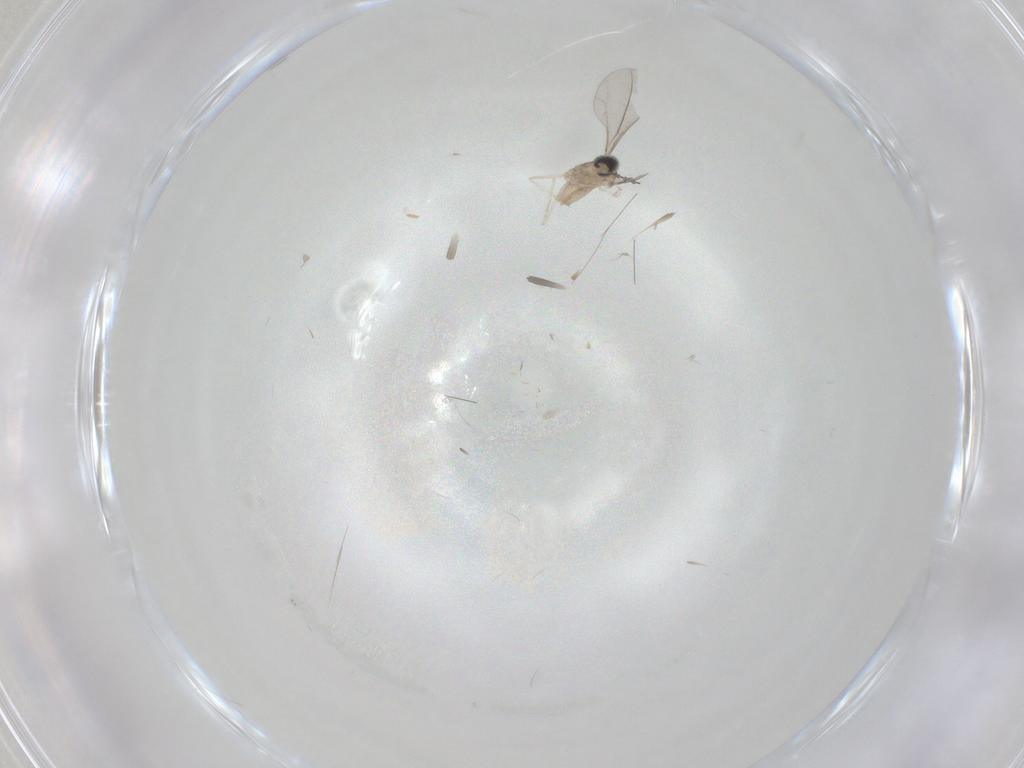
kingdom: Animalia
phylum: Arthropoda
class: Insecta
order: Diptera
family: Cecidomyiidae
